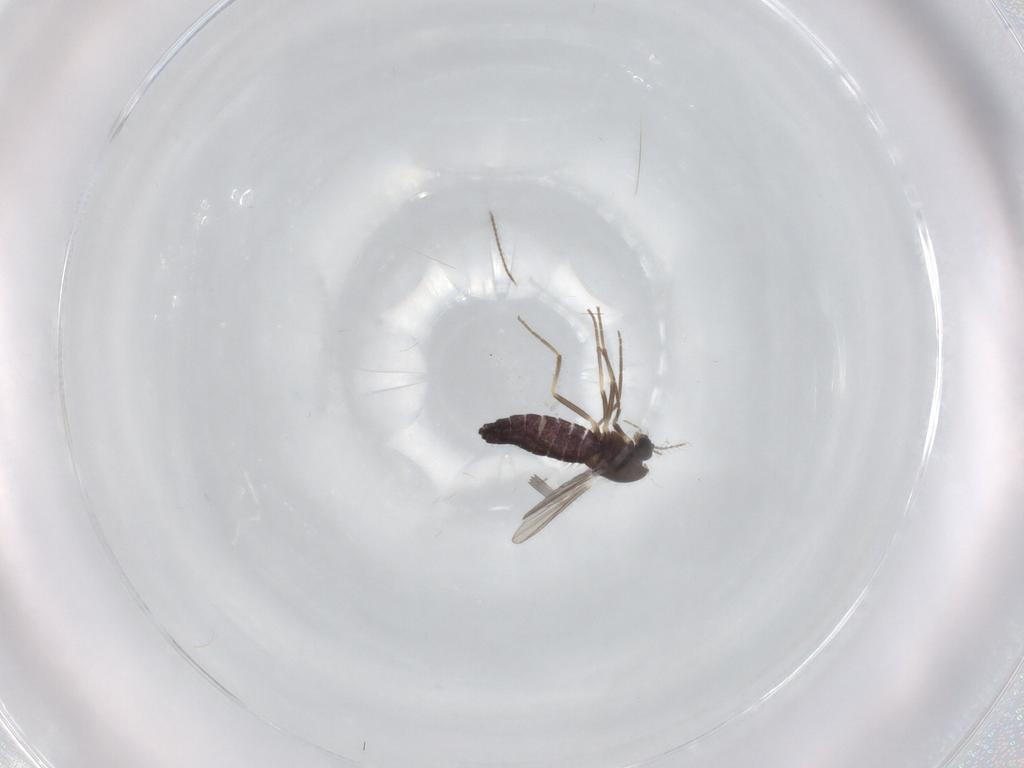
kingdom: Animalia
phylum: Arthropoda
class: Insecta
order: Diptera
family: Chironomidae
